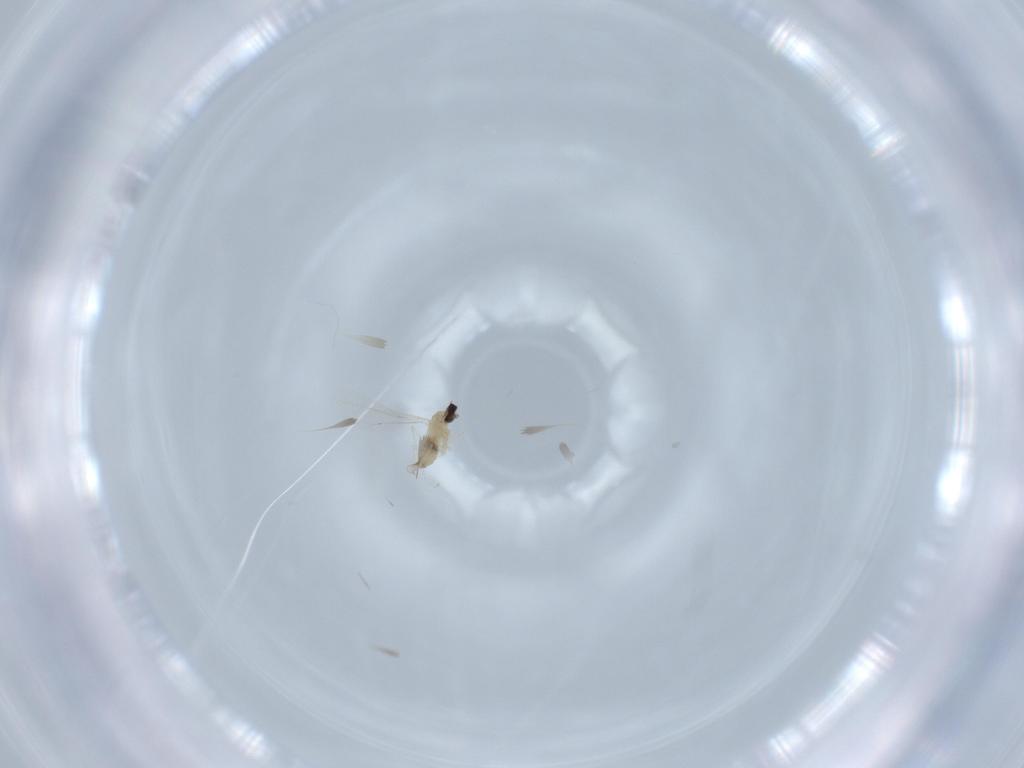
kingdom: Animalia
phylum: Arthropoda
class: Insecta
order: Diptera
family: Cecidomyiidae
